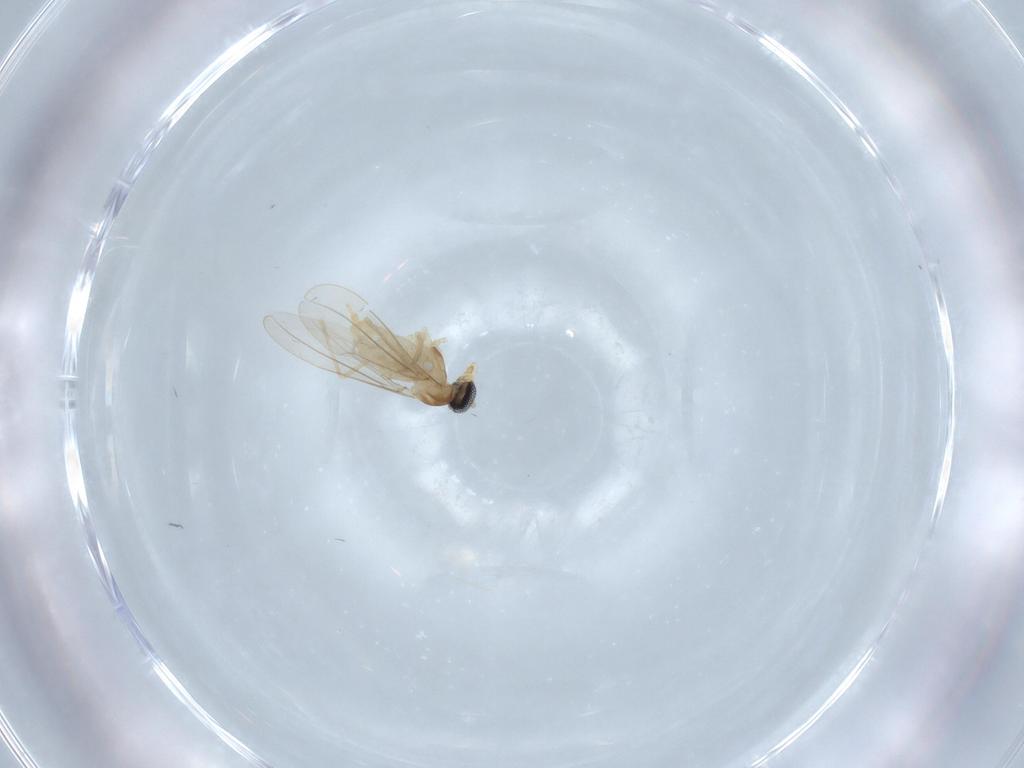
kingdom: Animalia
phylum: Arthropoda
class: Insecta
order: Diptera
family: Cecidomyiidae
